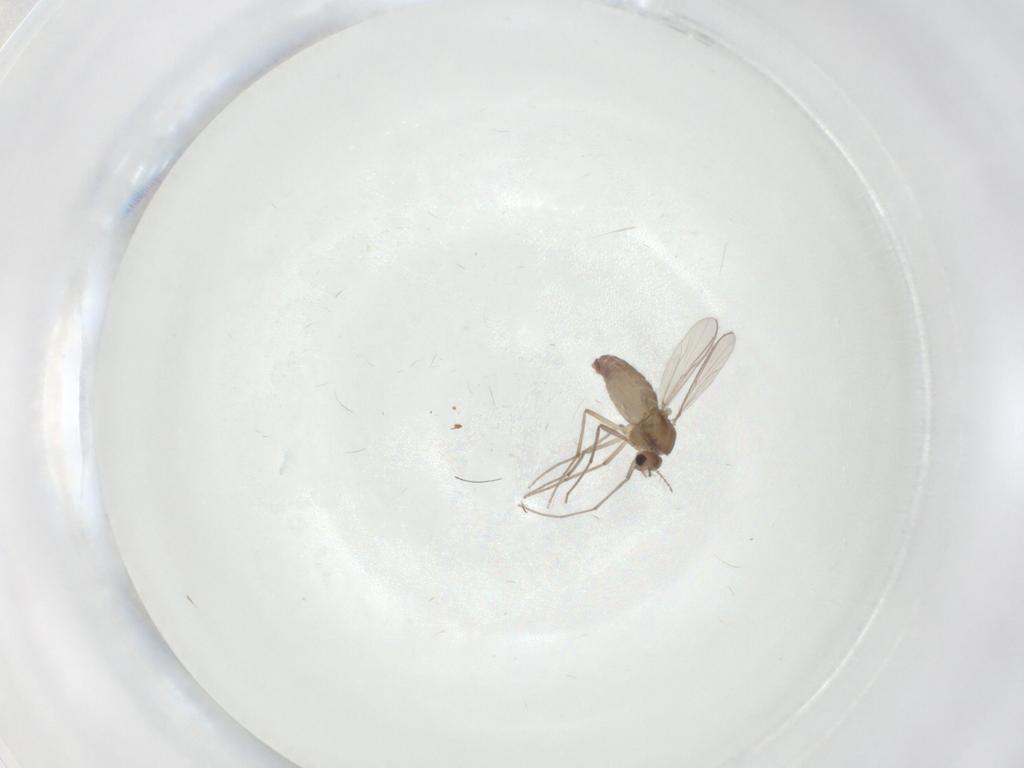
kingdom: Animalia
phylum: Arthropoda
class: Insecta
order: Diptera
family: Chironomidae
